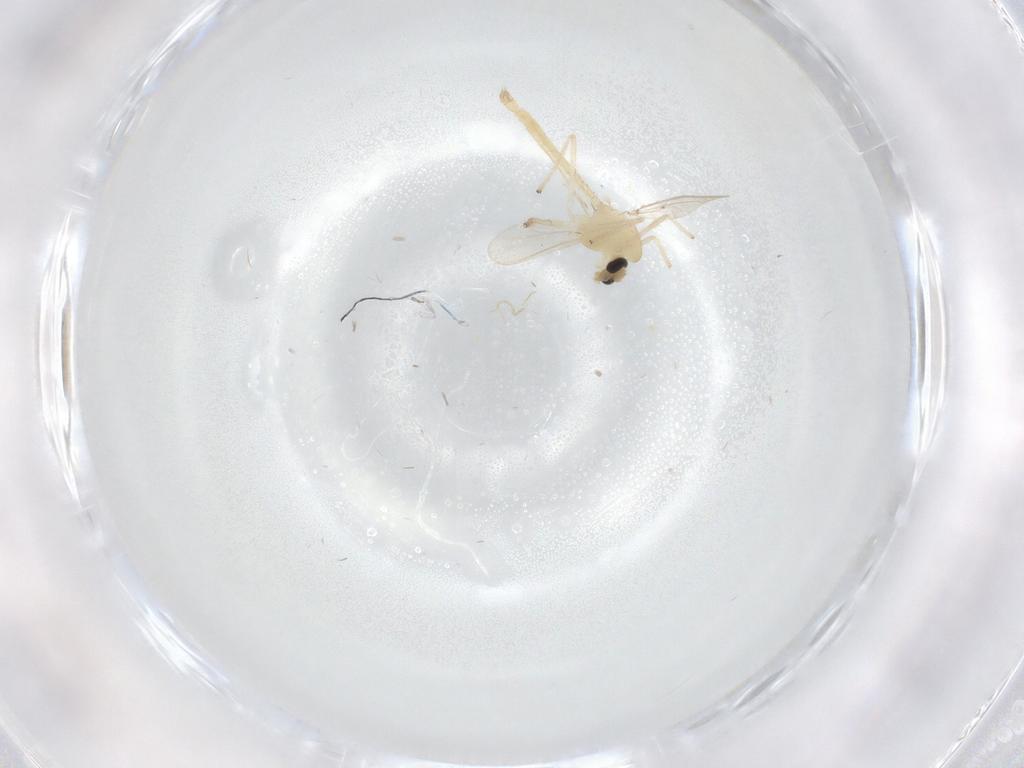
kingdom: Animalia
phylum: Arthropoda
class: Insecta
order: Diptera
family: Chironomidae
